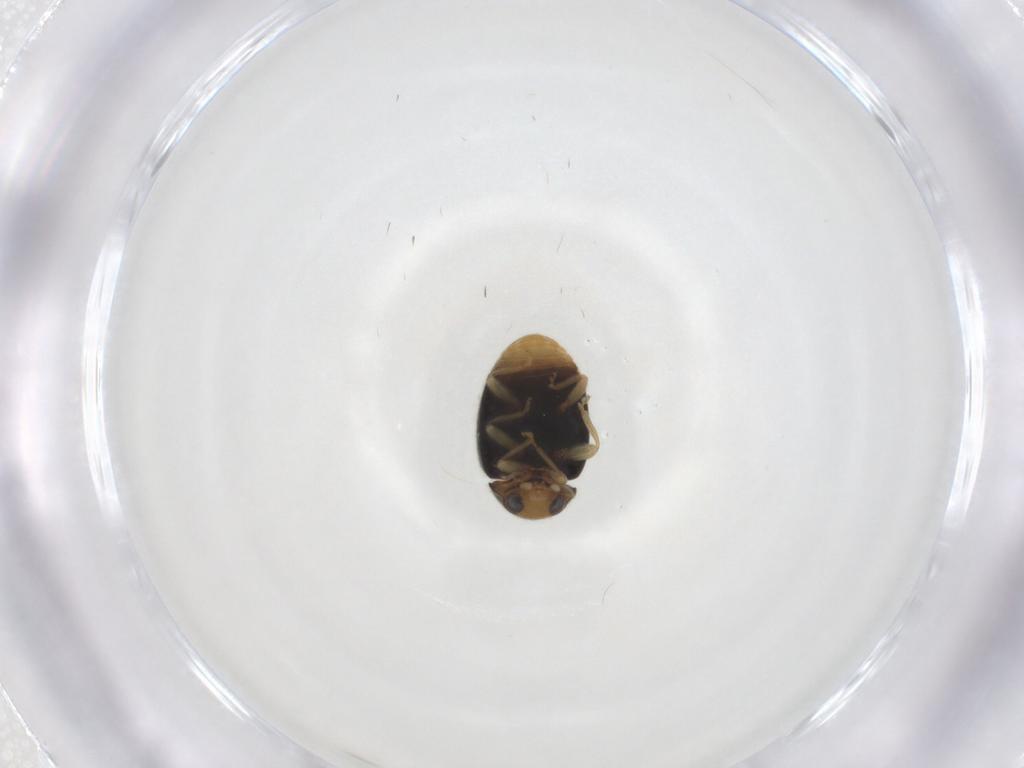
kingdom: Animalia
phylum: Arthropoda
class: Insecta
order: Coleoptera
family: Coccinellidae
